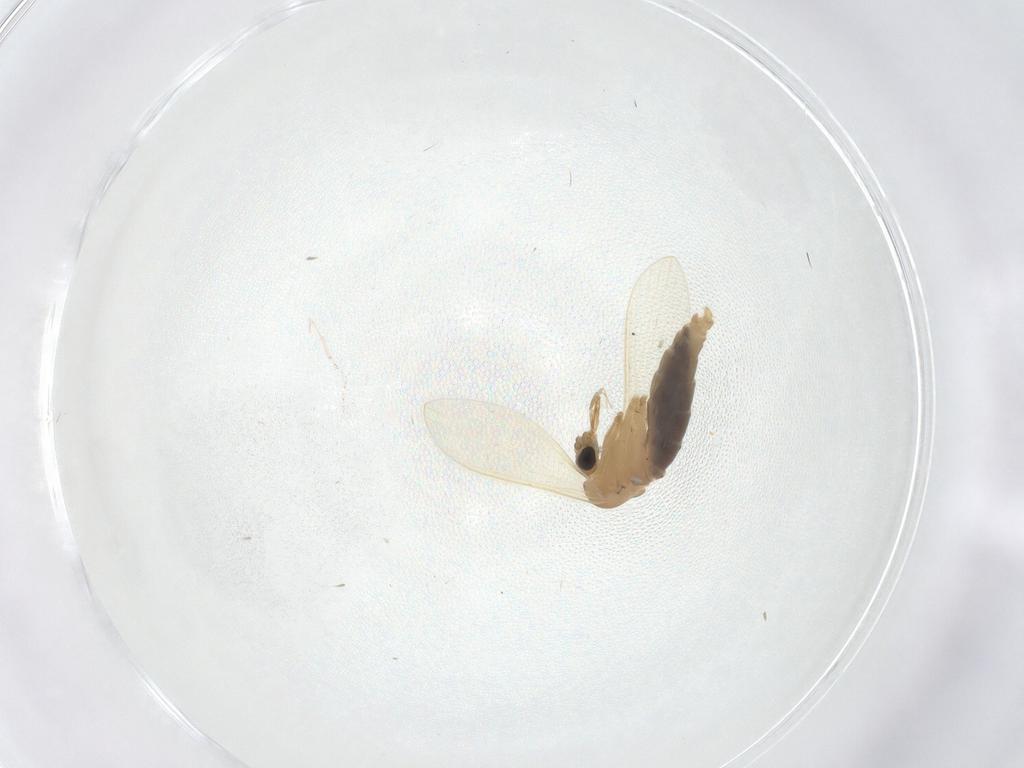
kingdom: Animalia
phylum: Arthropoda
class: Insecta
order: Diptera
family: Psychodidae
